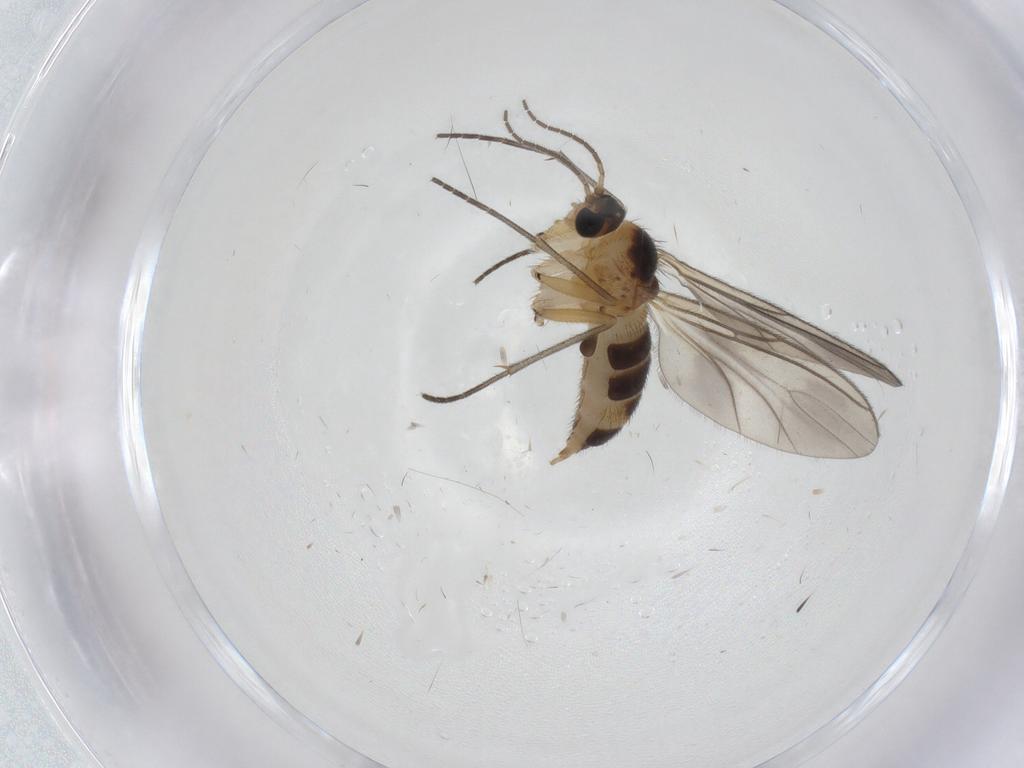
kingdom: Animalia
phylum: Arthropoda
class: Insecta
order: Diptera
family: Sciaridae
